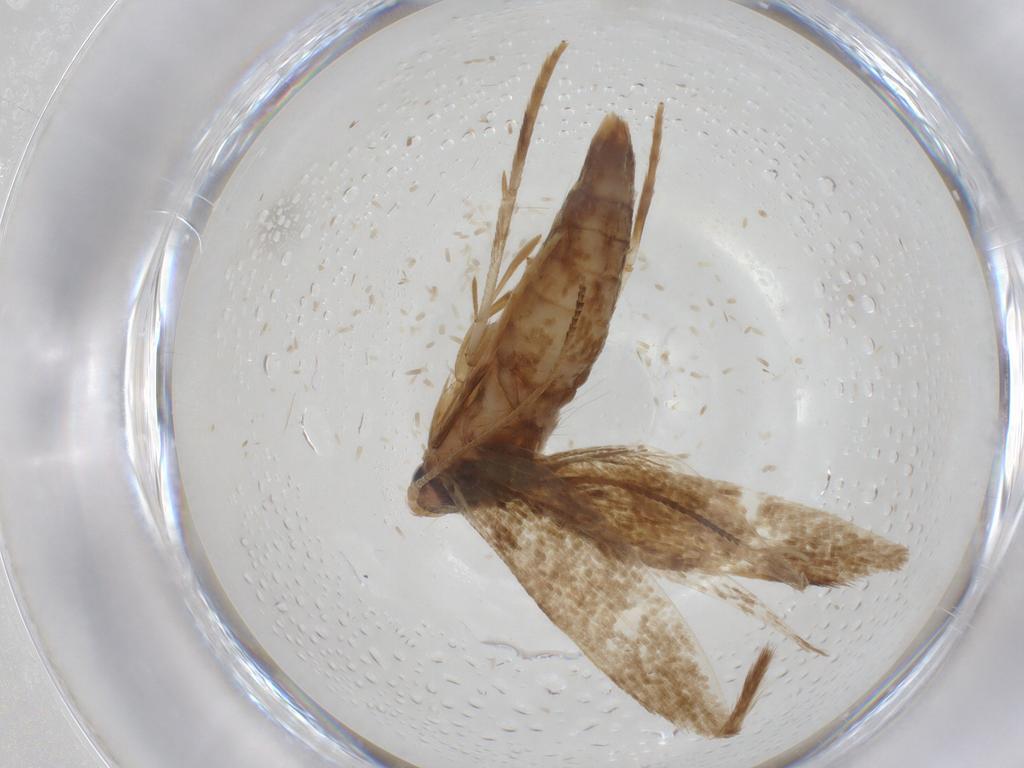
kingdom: Animalia
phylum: Arthropoda
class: Insecta
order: Lepidoptera
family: Tineidae
